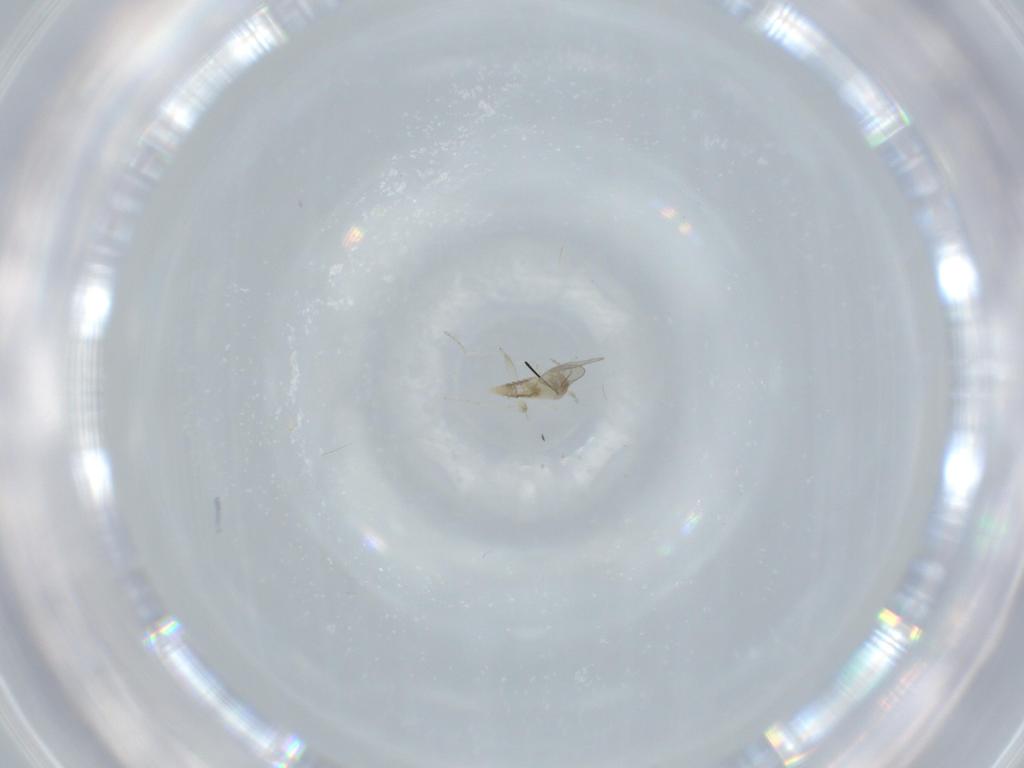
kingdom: Animalia
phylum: Arthropoda
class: Insecta
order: Diptera
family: Cecidomyiidae
